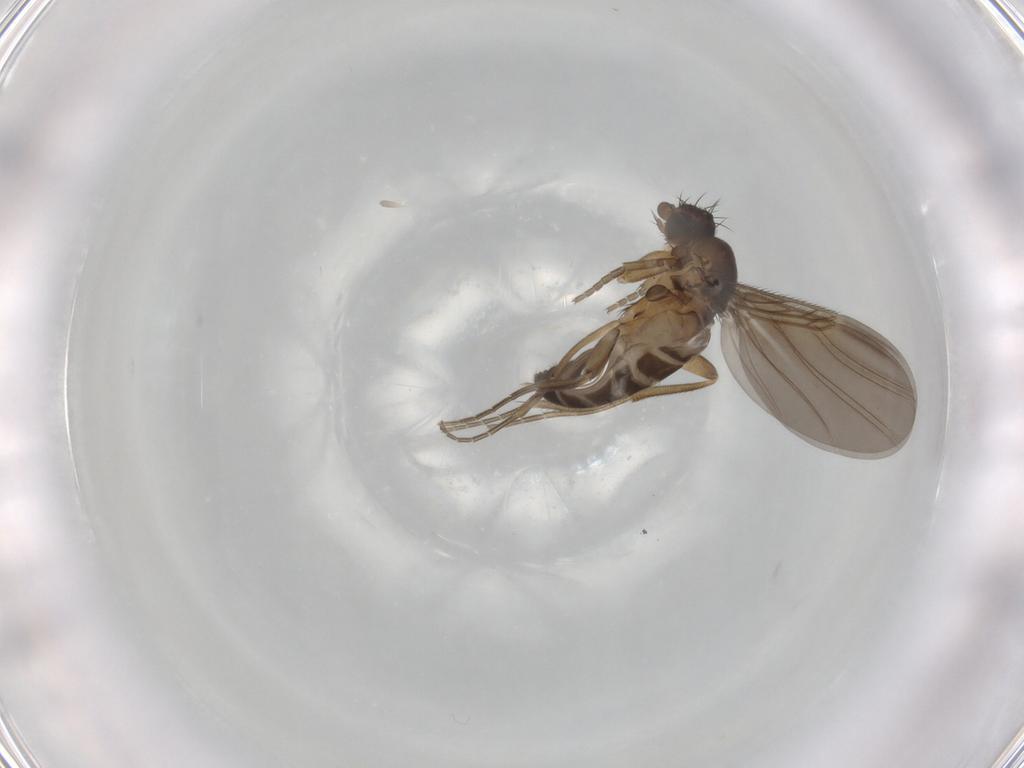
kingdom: Animalia
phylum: Arthropoda
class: Insecta
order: Diptera
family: Phoridae
